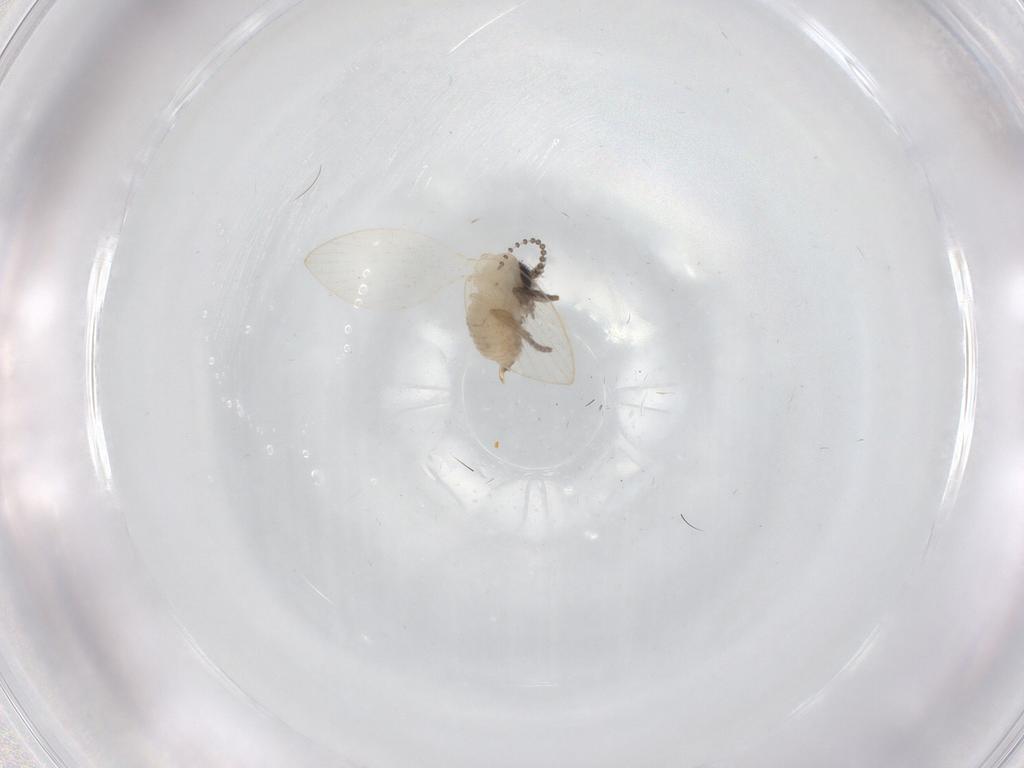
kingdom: Animalia
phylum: Arthropoda
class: Insecta
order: Diptera
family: Psychodidae
